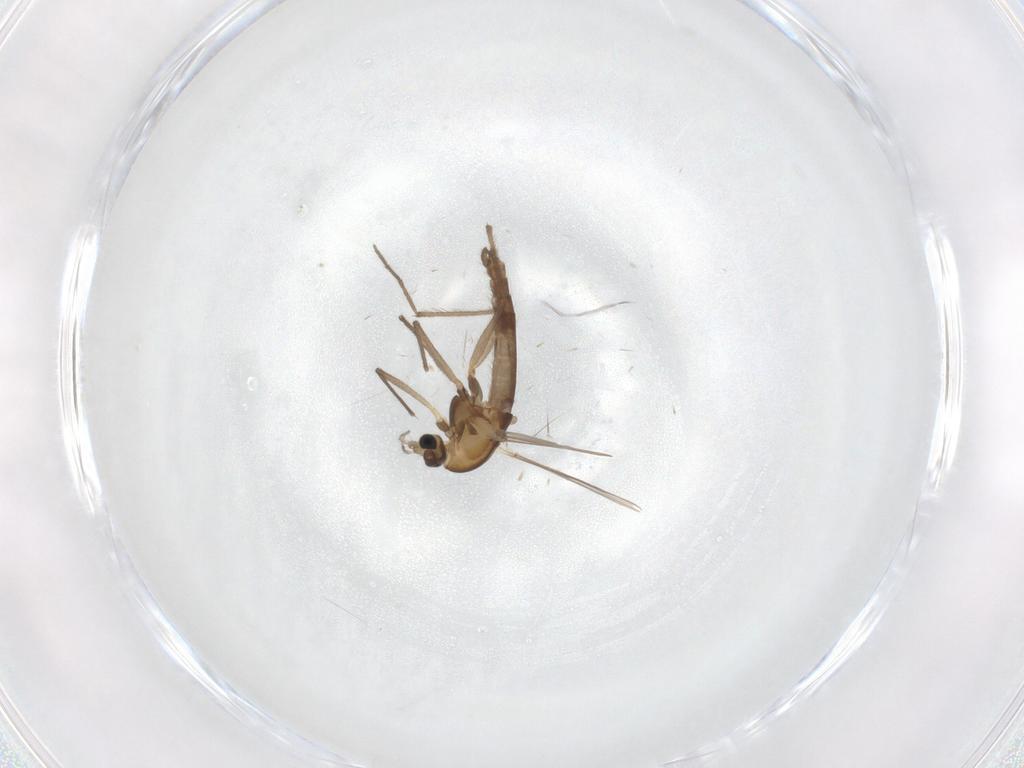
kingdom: Animalia
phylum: Arthropoda
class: Insecta
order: Diptera
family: Chironomidae
